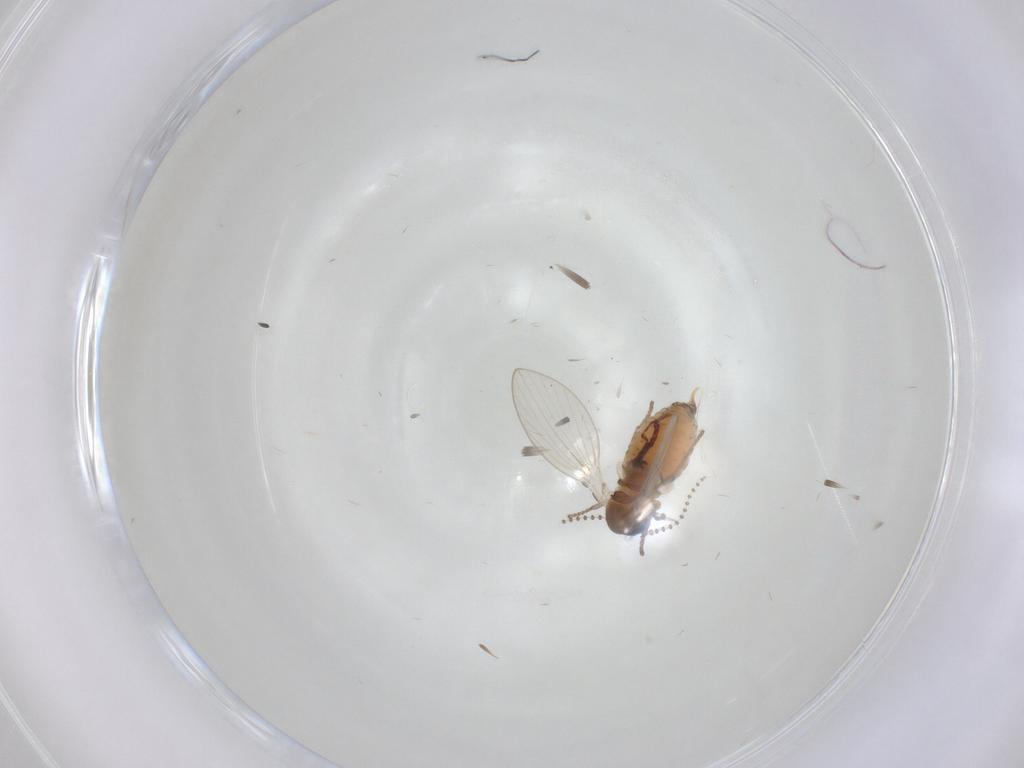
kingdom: Animalia
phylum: Arthropoda
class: Insecta
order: Diptera
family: Psychodidae
